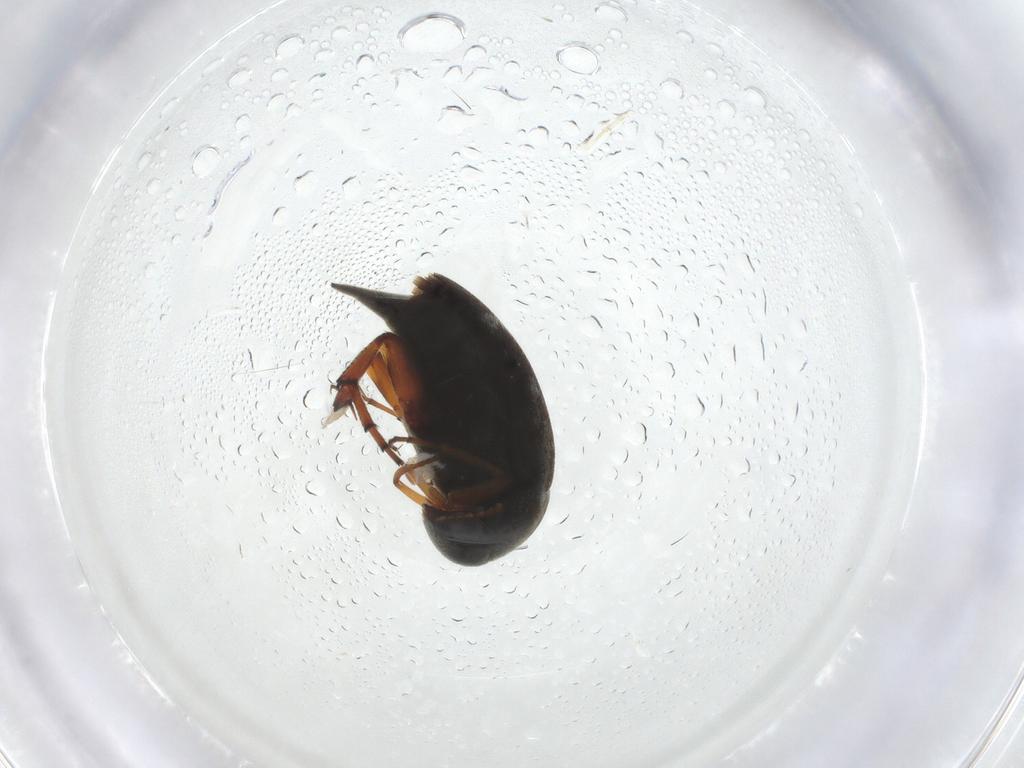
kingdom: Animalia
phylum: Arthropoda
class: Insecta
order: Coleoptera
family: Mordellidae
